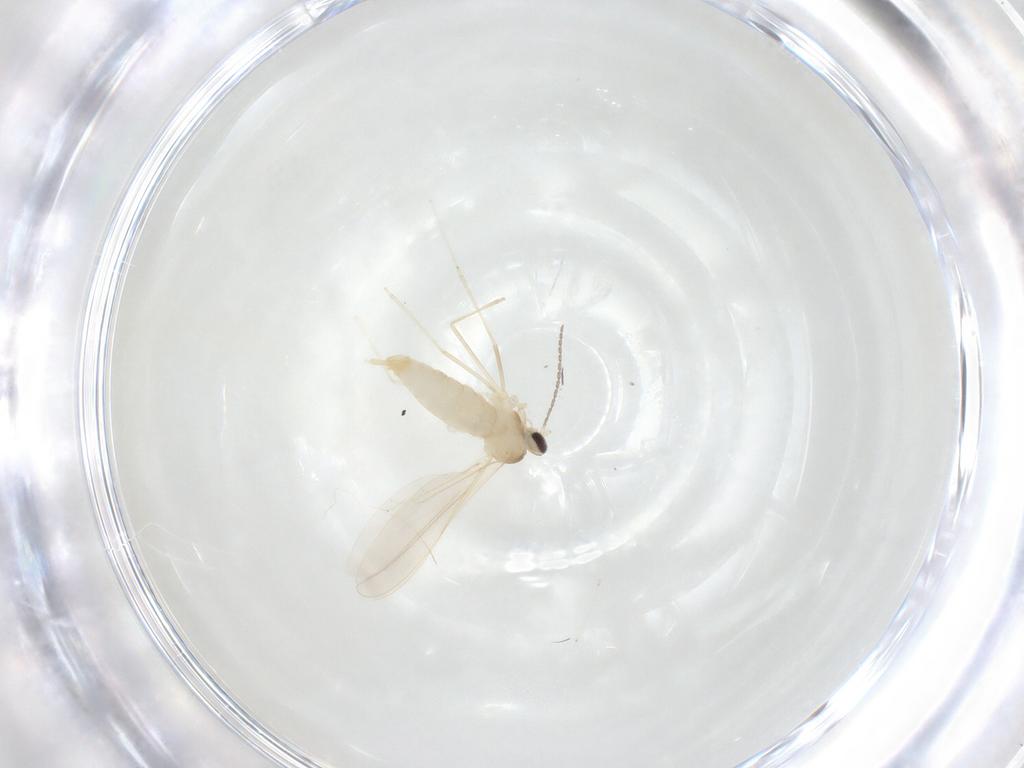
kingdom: Animalia
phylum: Arthropoda
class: Insecta
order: Diptera
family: Cecidomyiidae
